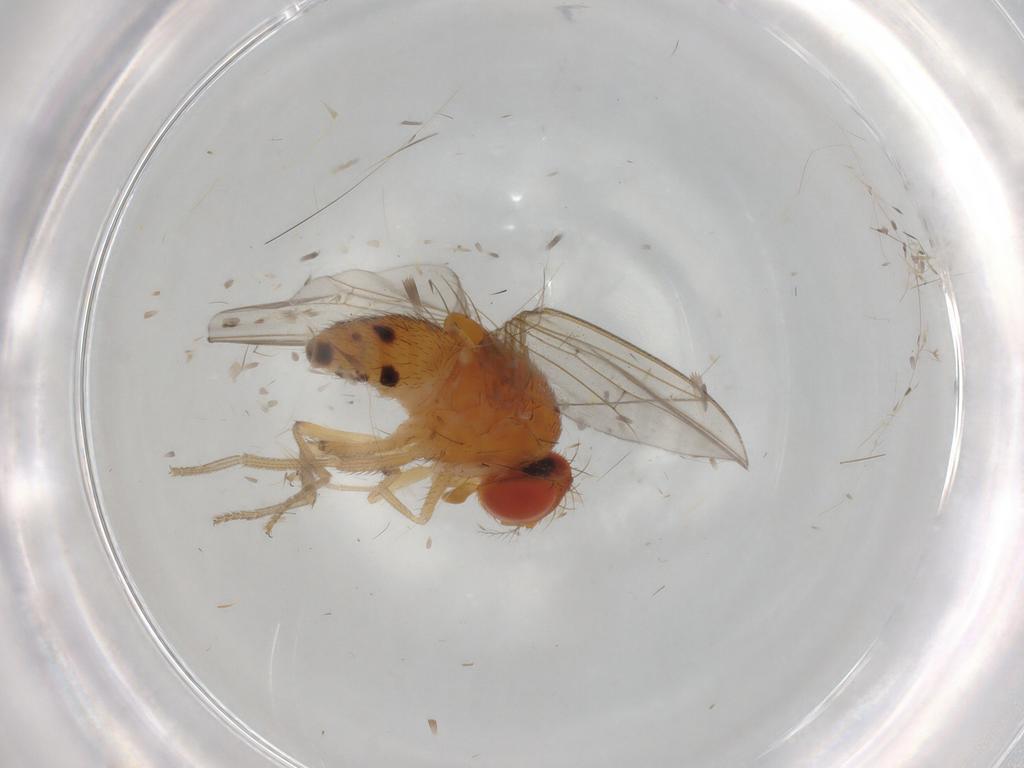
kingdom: Animalia
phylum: Arthropoda
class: Insecta
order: Diptera
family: Drosophilidae
